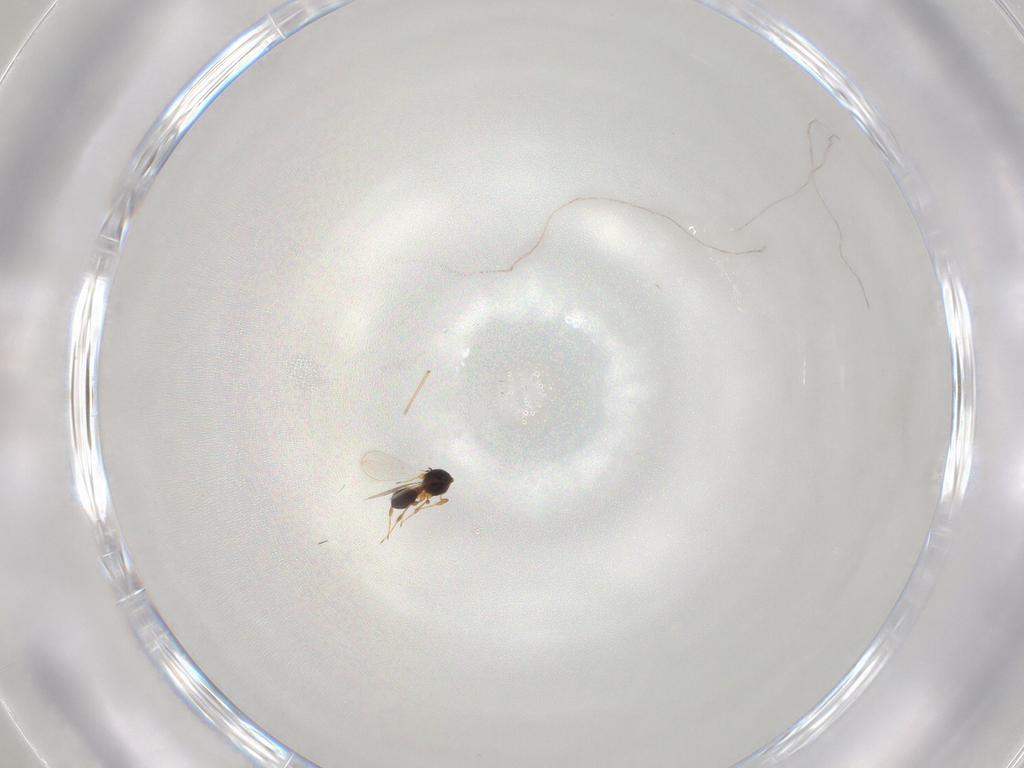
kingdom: Animalia
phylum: Arthropoda
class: Insecta
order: Hymenoptera
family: Platygastridae
